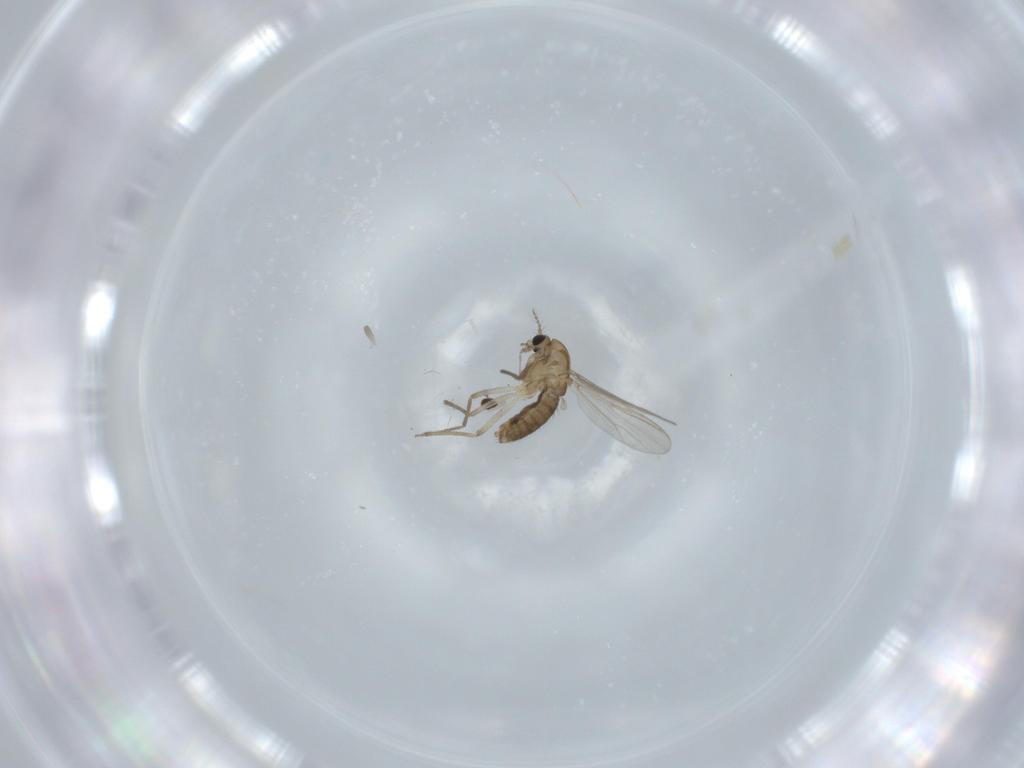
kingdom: Animalia
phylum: Arthropoda
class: Insecta
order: Diptera
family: Chironomidae
